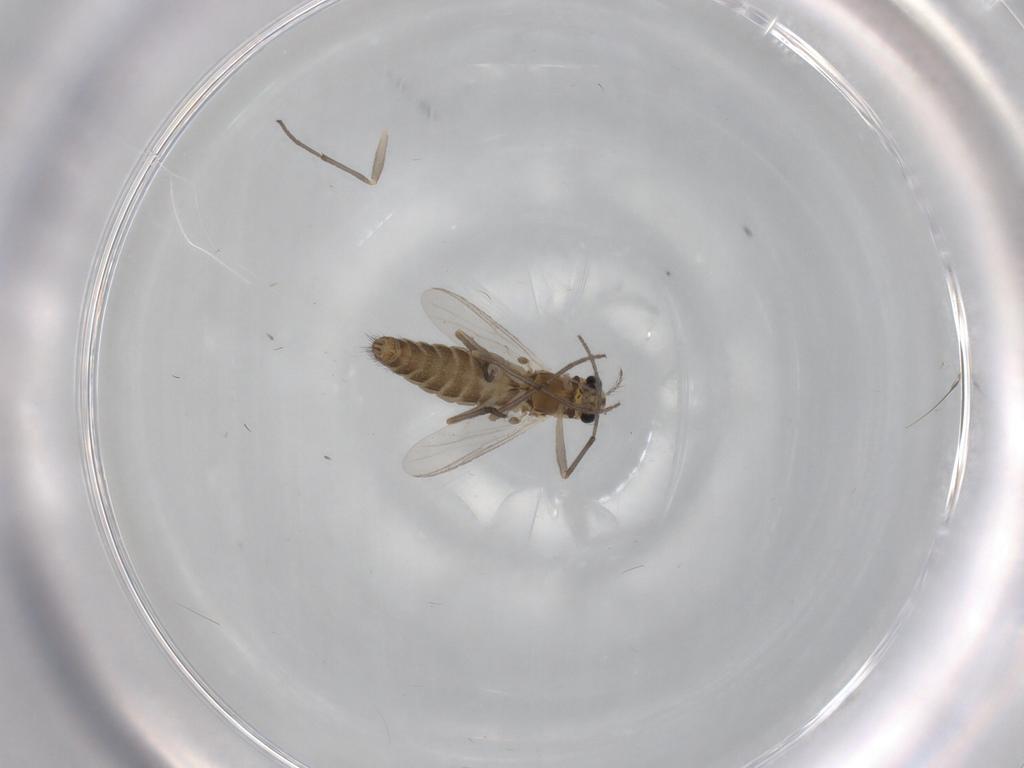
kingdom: Animalia
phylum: Arthropoda
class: Insecta
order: Diptera
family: Chironomidae
